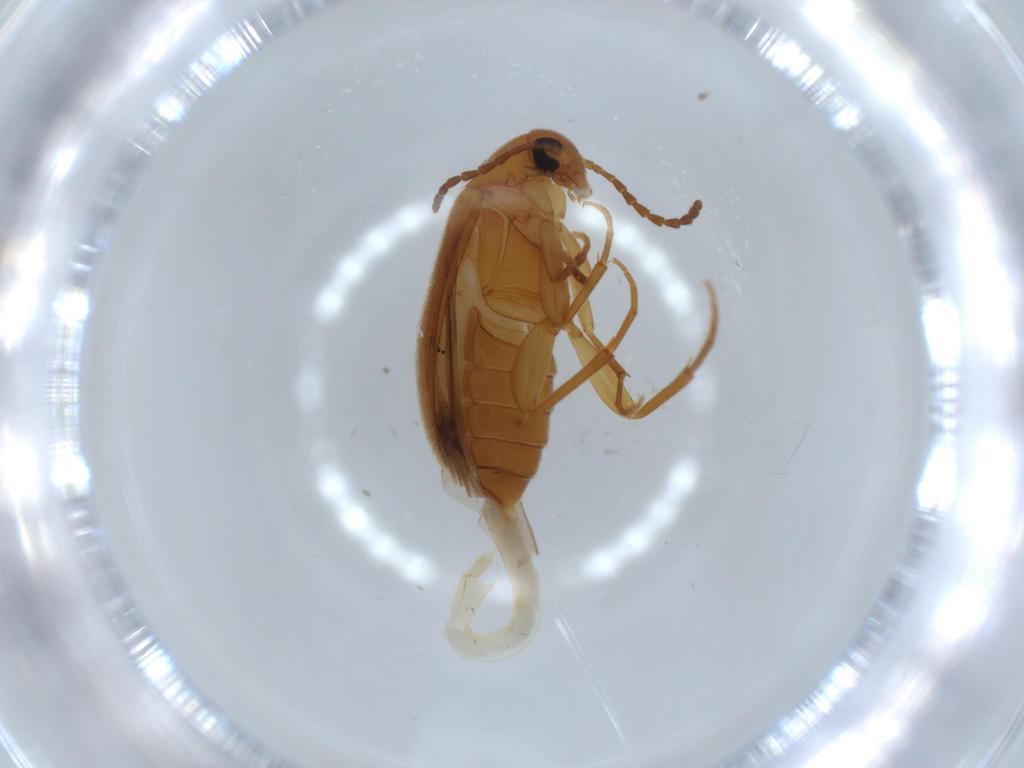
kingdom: Animalia
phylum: Arthropoda
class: Insecta
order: Coleoptera
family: Scraptiidae
